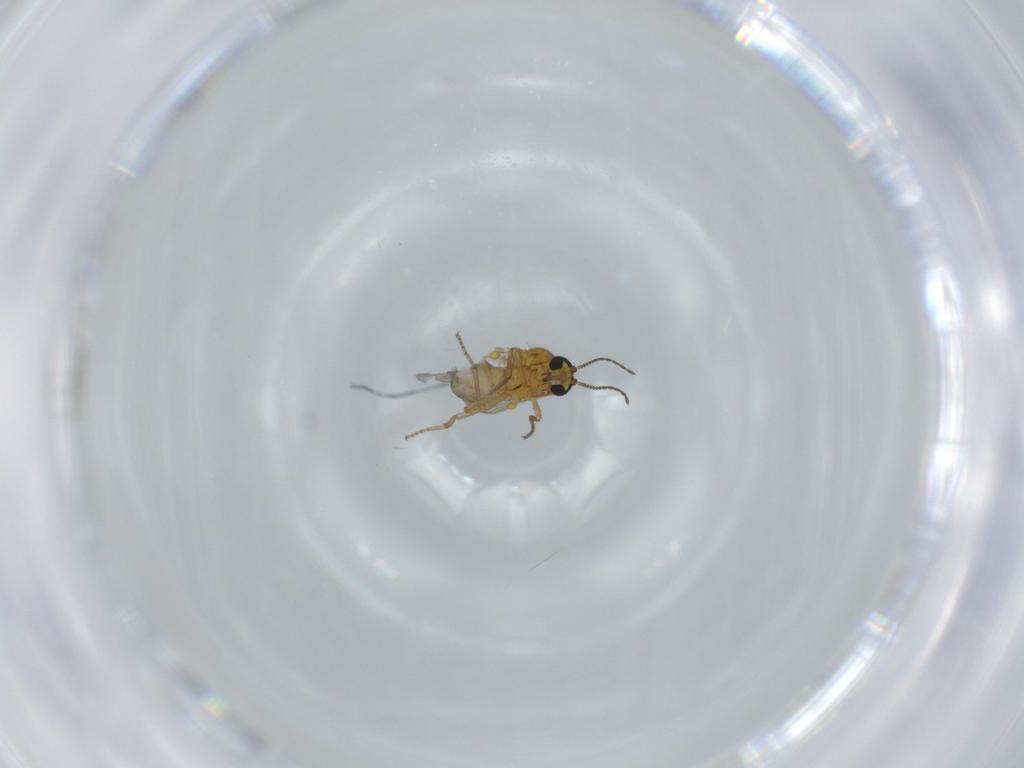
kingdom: Animalia
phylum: Arthropoda
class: Insecta
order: Diptera
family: Ceratopogonidae
